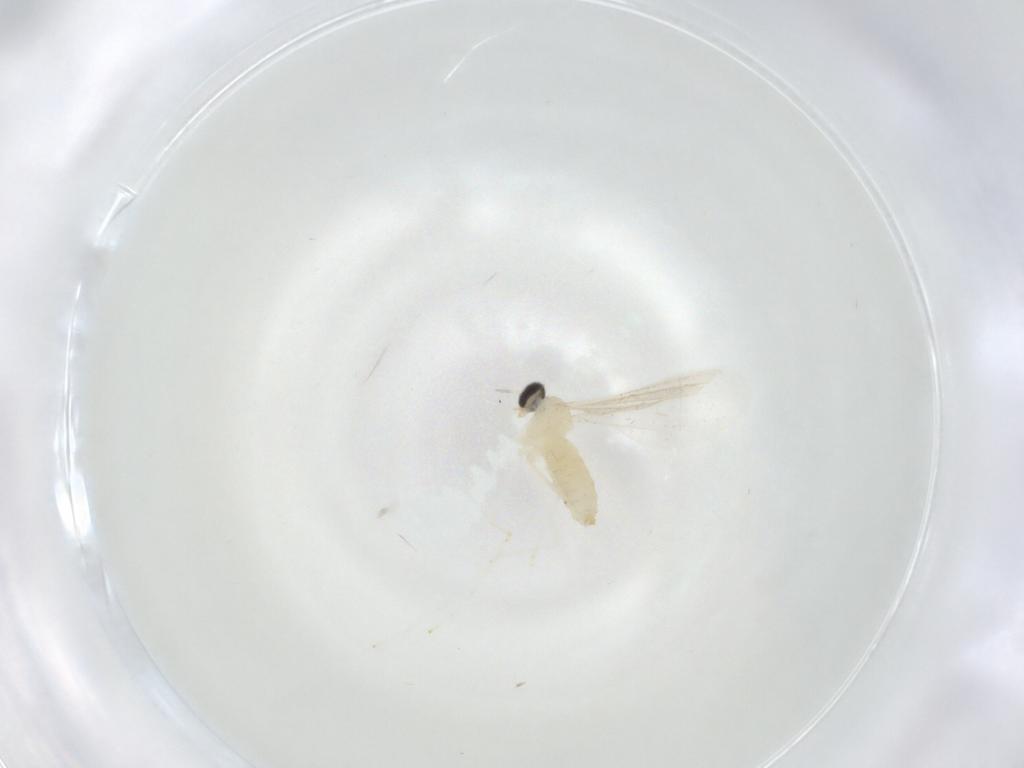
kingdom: Animalia
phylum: Arthropoda
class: Insecta
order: Diptera
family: Cecidomyiidae
